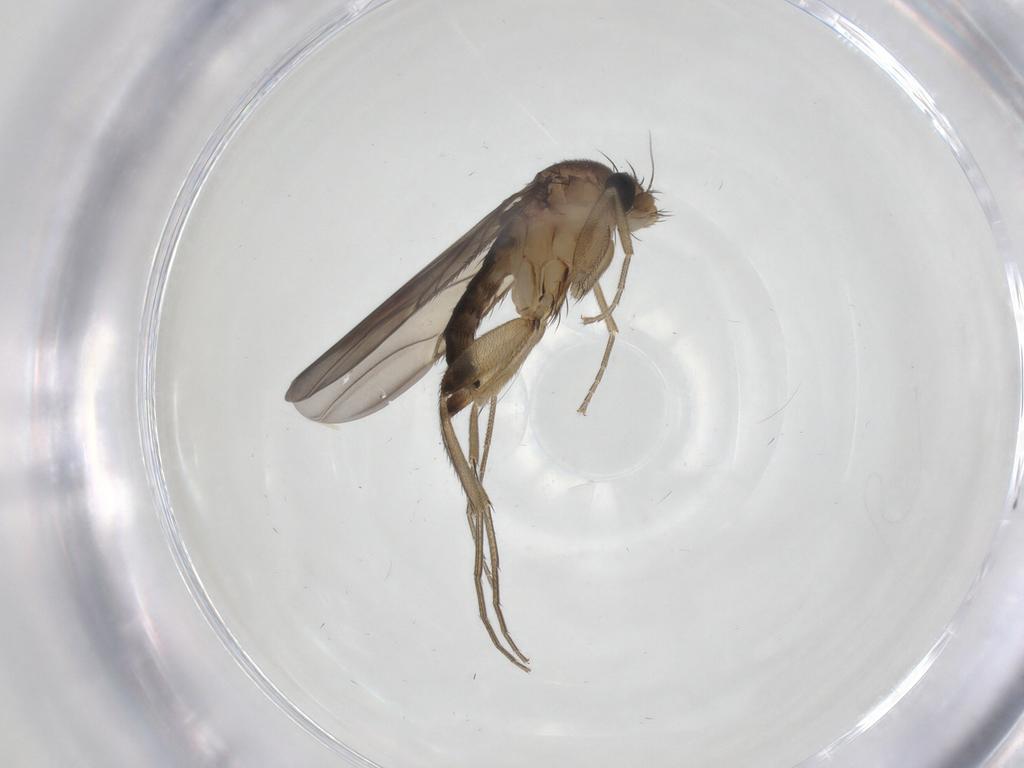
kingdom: Animalia
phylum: Arthropoda
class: Insecta
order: Diptera
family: Phoridae
